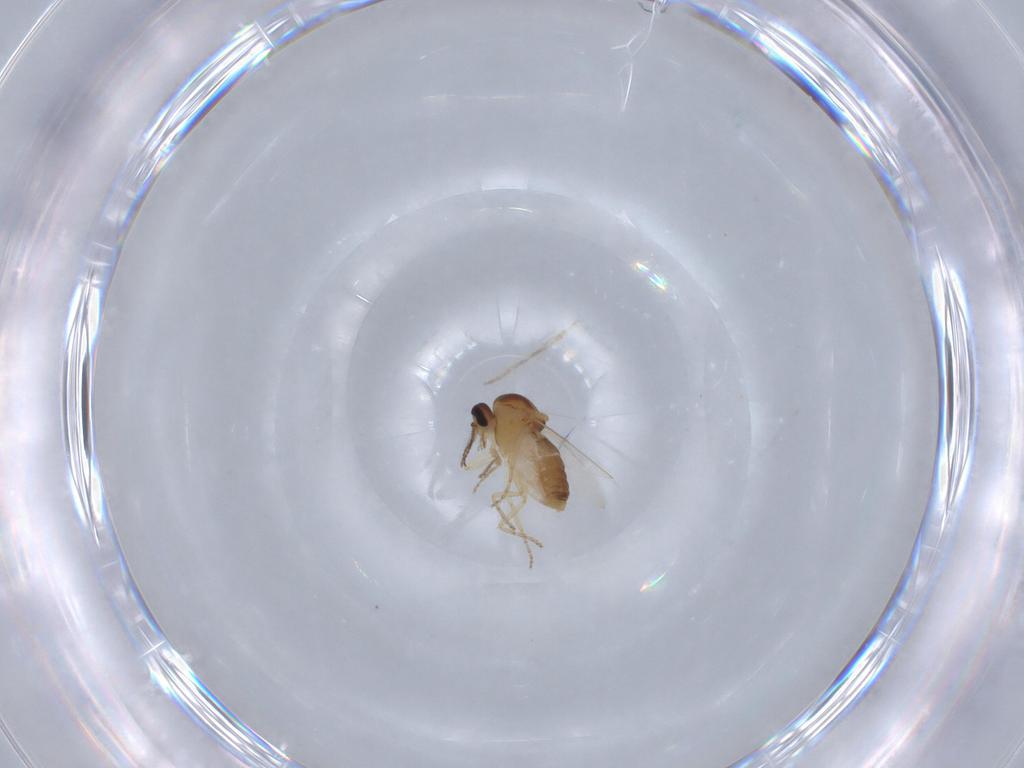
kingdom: Animalia
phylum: Arthropoda
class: Insecta
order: Diptera
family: Ceratopogonidae
